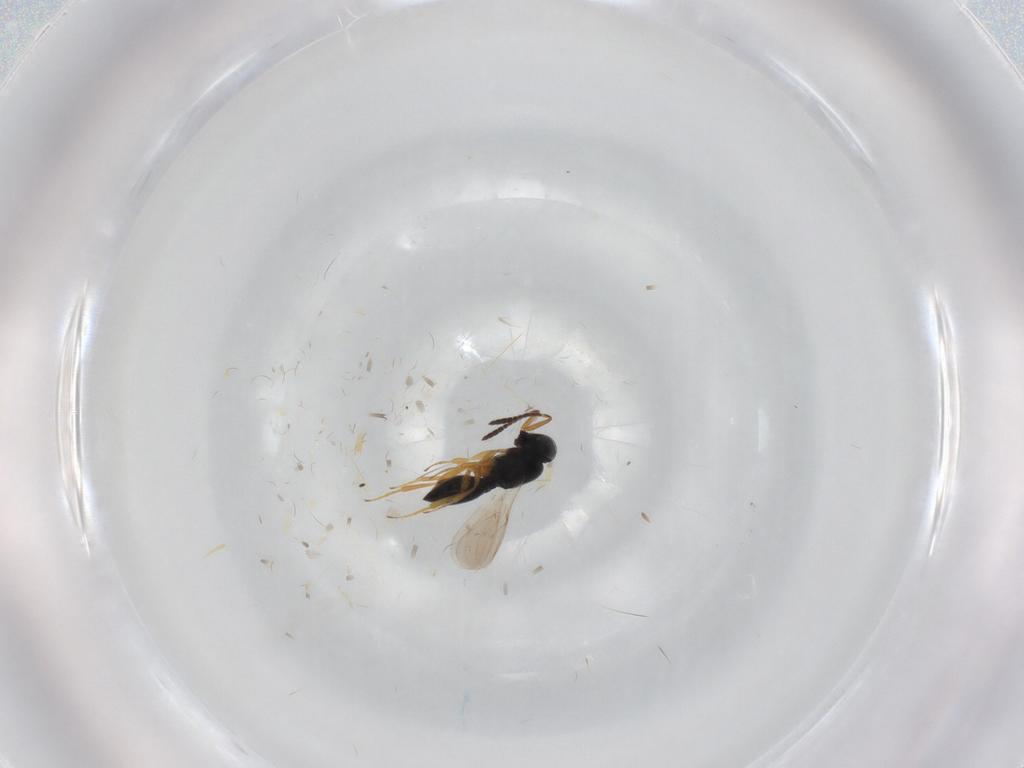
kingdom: Animalia
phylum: Arthropoda
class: Insecta
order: Hymenoptera
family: Scelionidae
